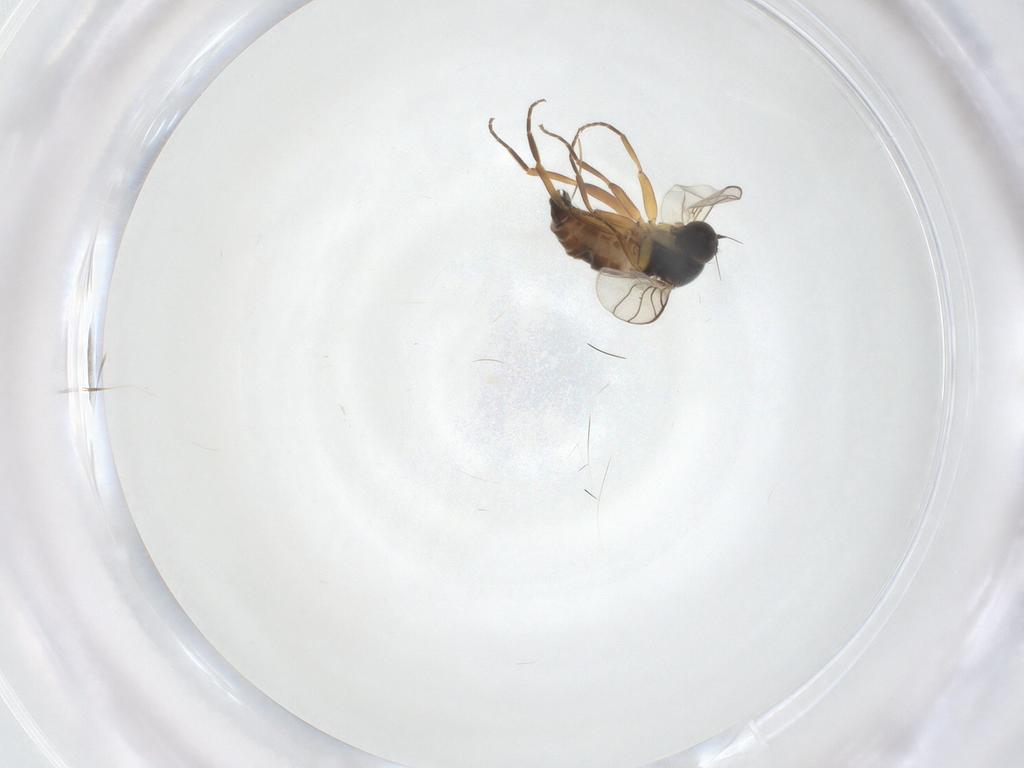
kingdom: Animalia
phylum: Arthropoda
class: Insecta
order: Diptera
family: Hybotidae
